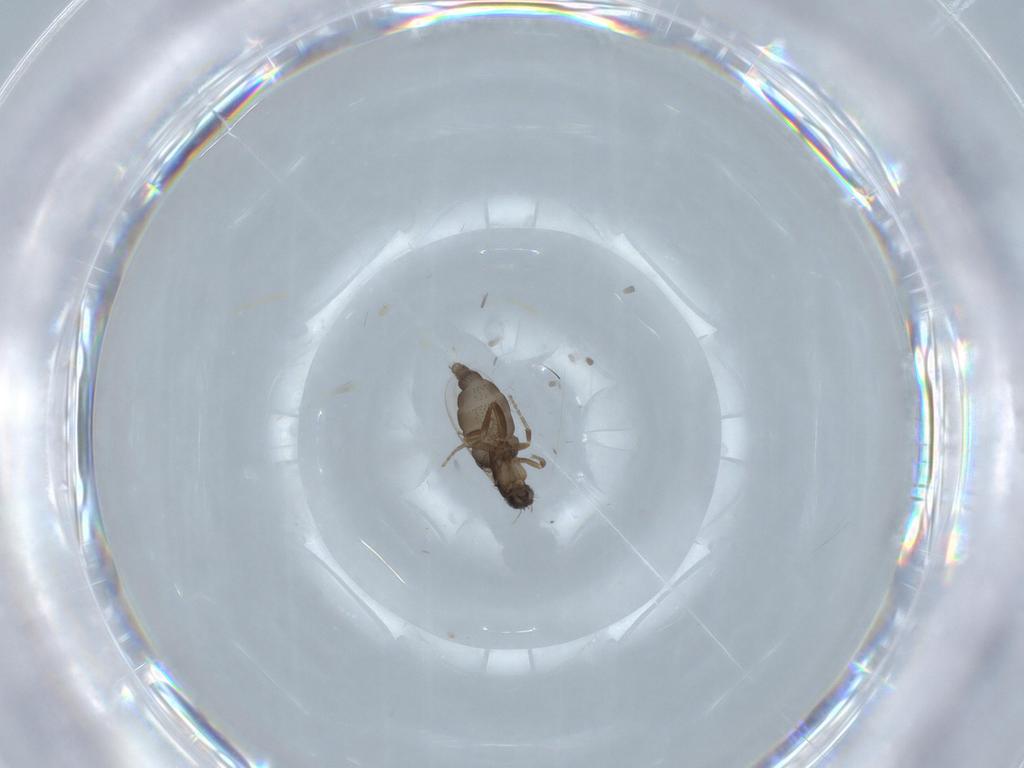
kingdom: Animalia
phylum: Arthropoda
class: Insecta
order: Diptera
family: Phoridae
